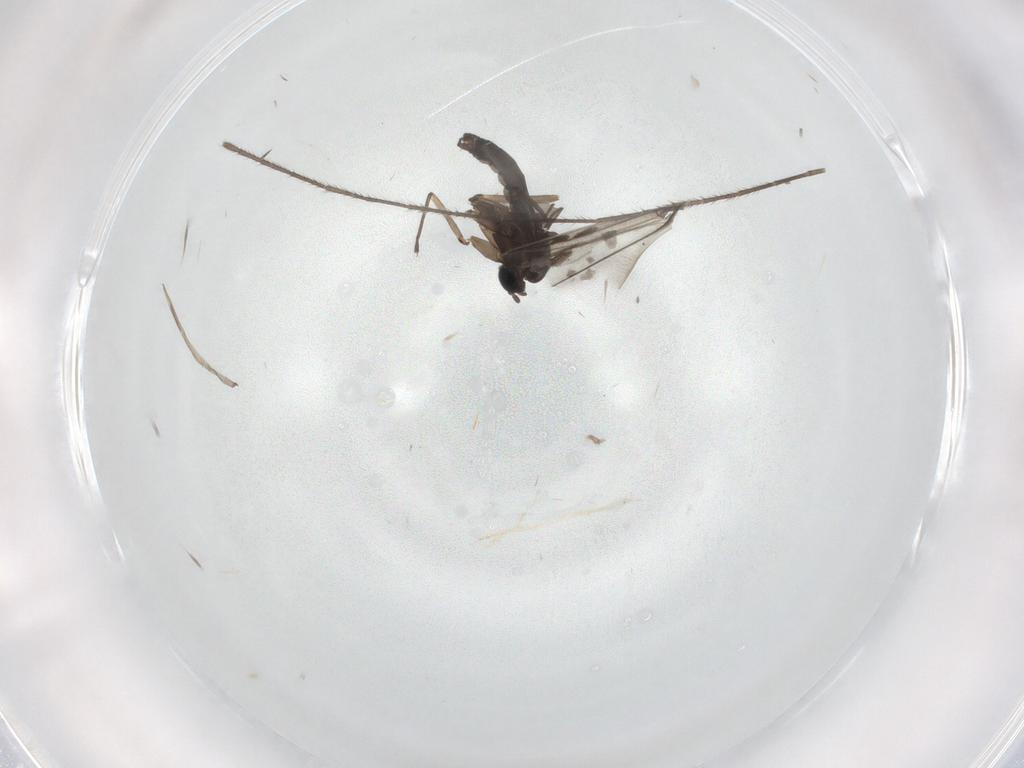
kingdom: Animalia
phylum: Arthropoda
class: Insecta
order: Diptera
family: Sciaridae
